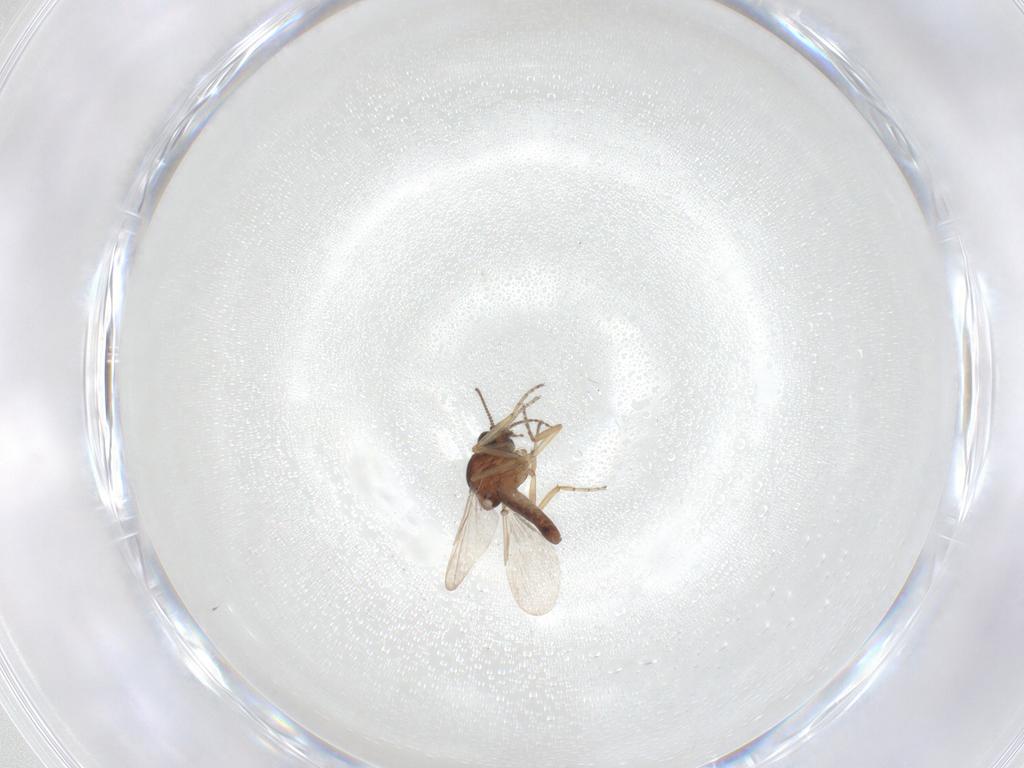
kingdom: Animalia
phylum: Arthropoda
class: Insecta
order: Diptera
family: Ceratopogonidae
